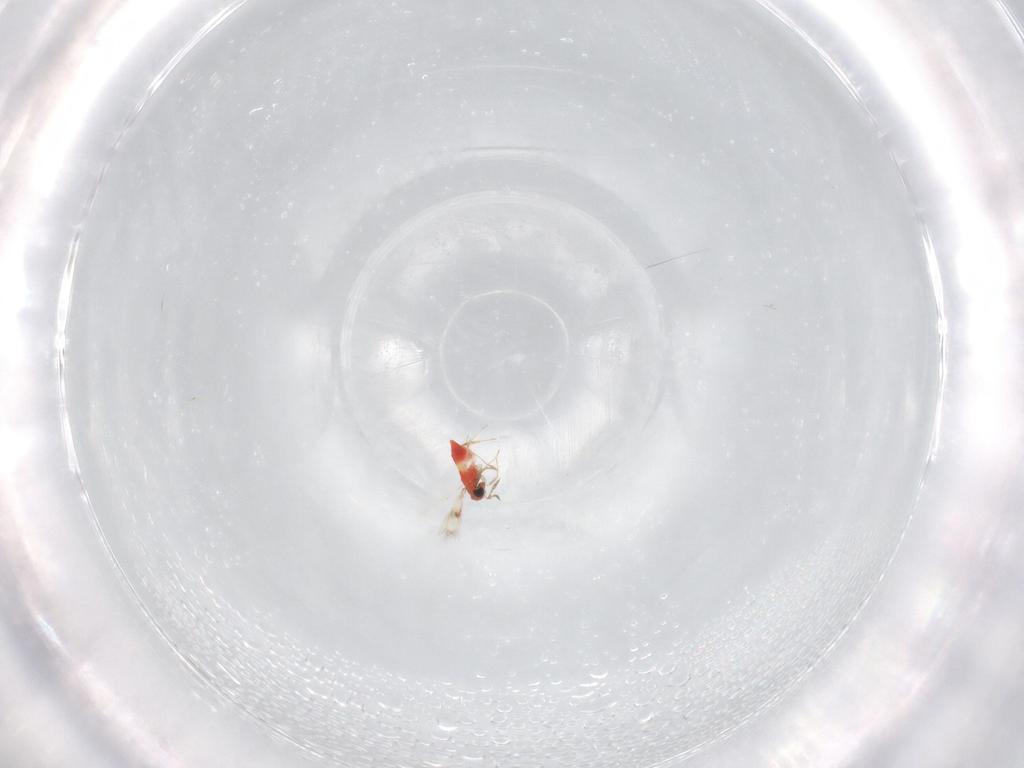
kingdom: Animalia
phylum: Arthropoda
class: Insecta
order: Hymenoptera
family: Trichogrammatidae
